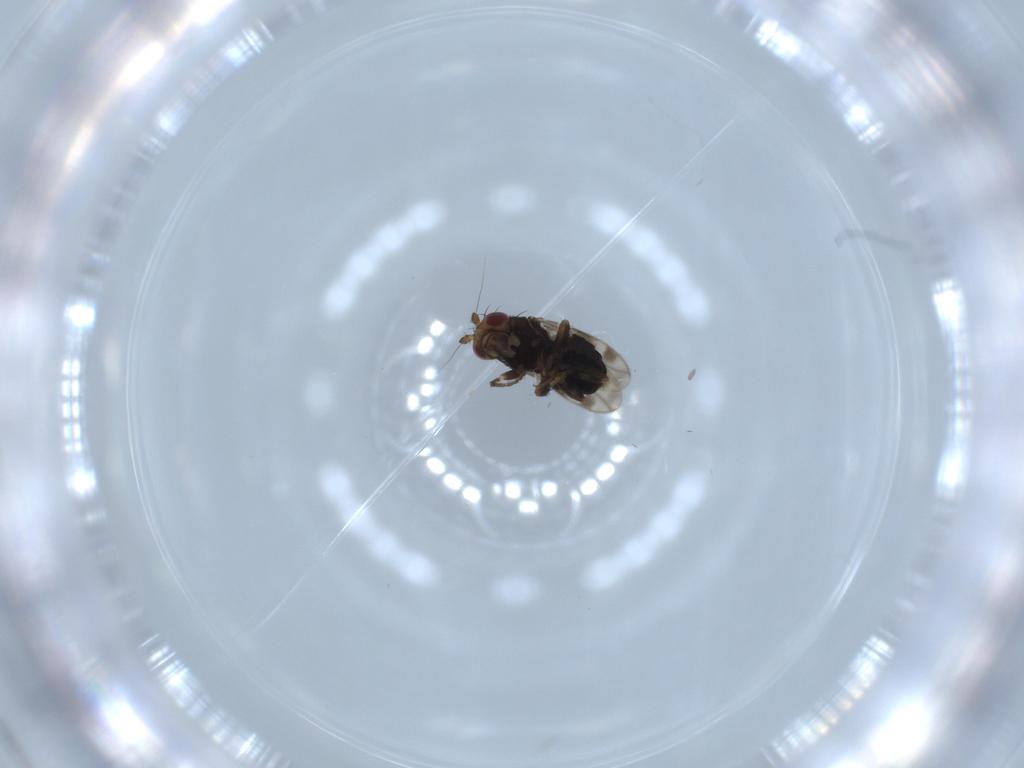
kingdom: Animalia
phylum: Arthropoda
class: Insecta
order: Diptera
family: Sphaeroceridae
